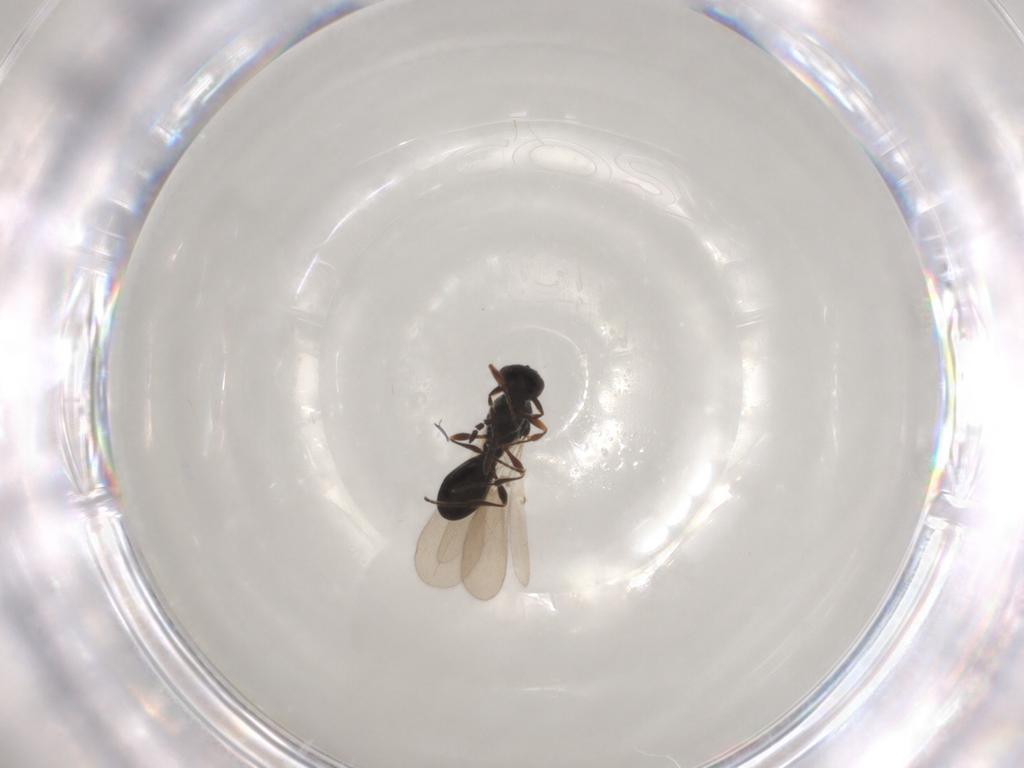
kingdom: Animalia
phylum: Arthropoda
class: Insecta
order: Hymenoptera
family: Platygastridae
